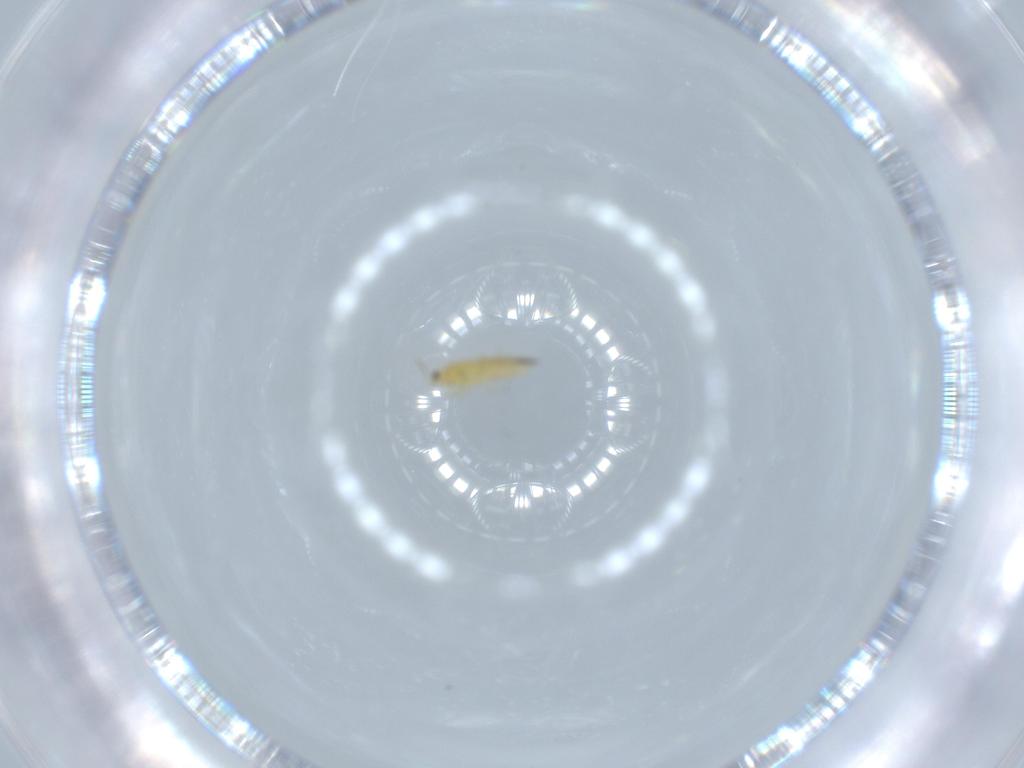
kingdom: Animalia
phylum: Arthropoda
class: Insecta
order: Thysanoptera
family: Thripidae
